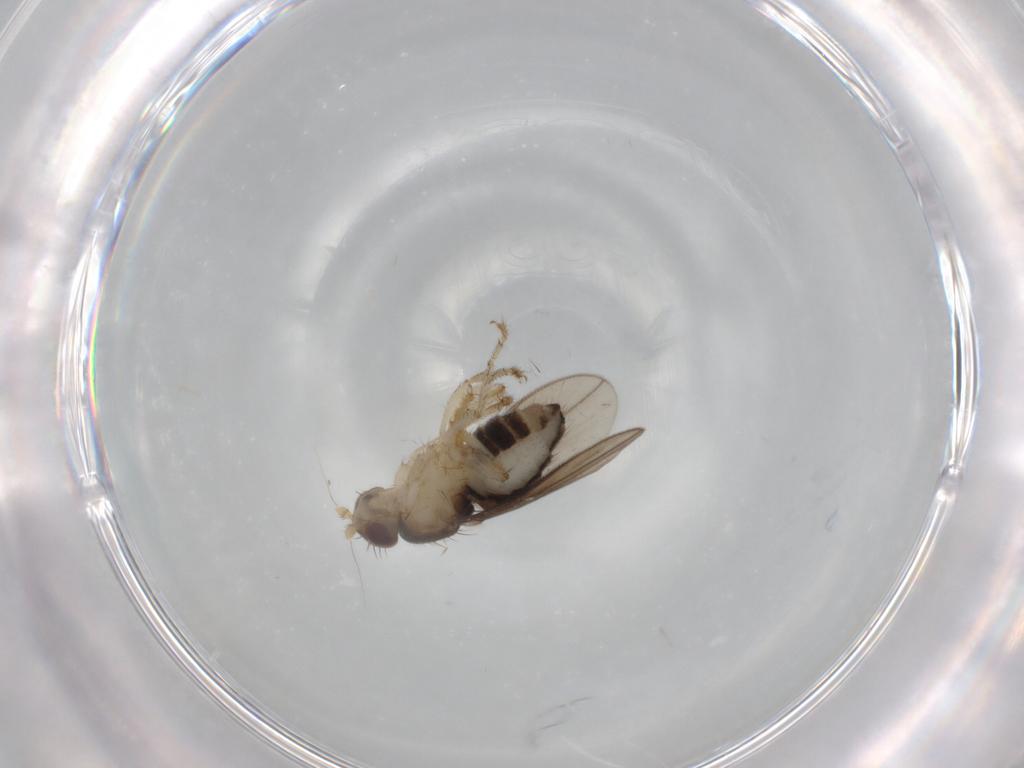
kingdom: Animalia
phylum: Arthropoda
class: Insecta
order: Diptera
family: Sphaeroceridae
